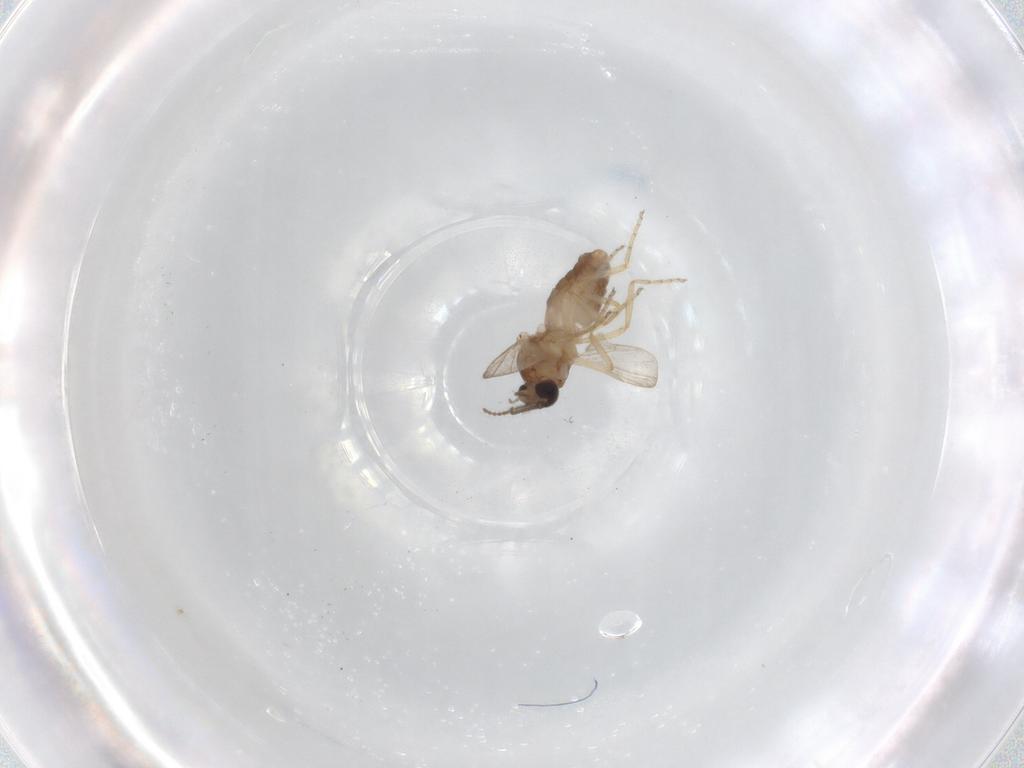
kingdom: Animalia
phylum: Arthropoda
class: Insecta
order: Diptera
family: Ceratopogonidae
